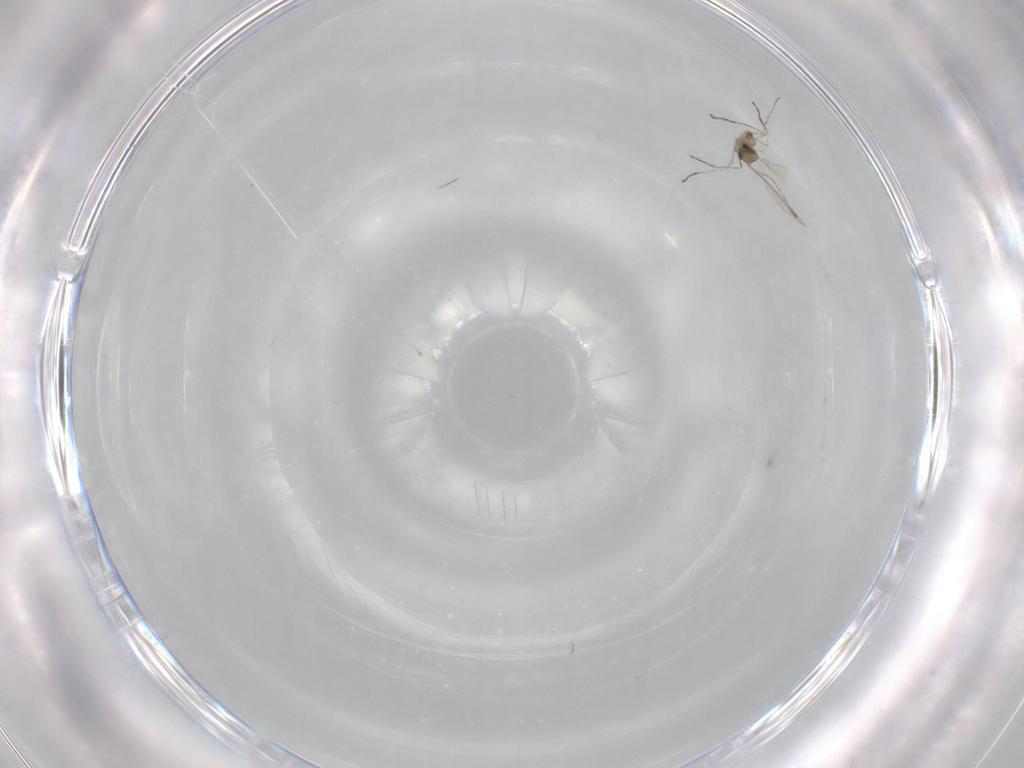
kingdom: Animalia
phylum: Arthropoda
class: Insecta
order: Diptera
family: Cecidomyiidae
